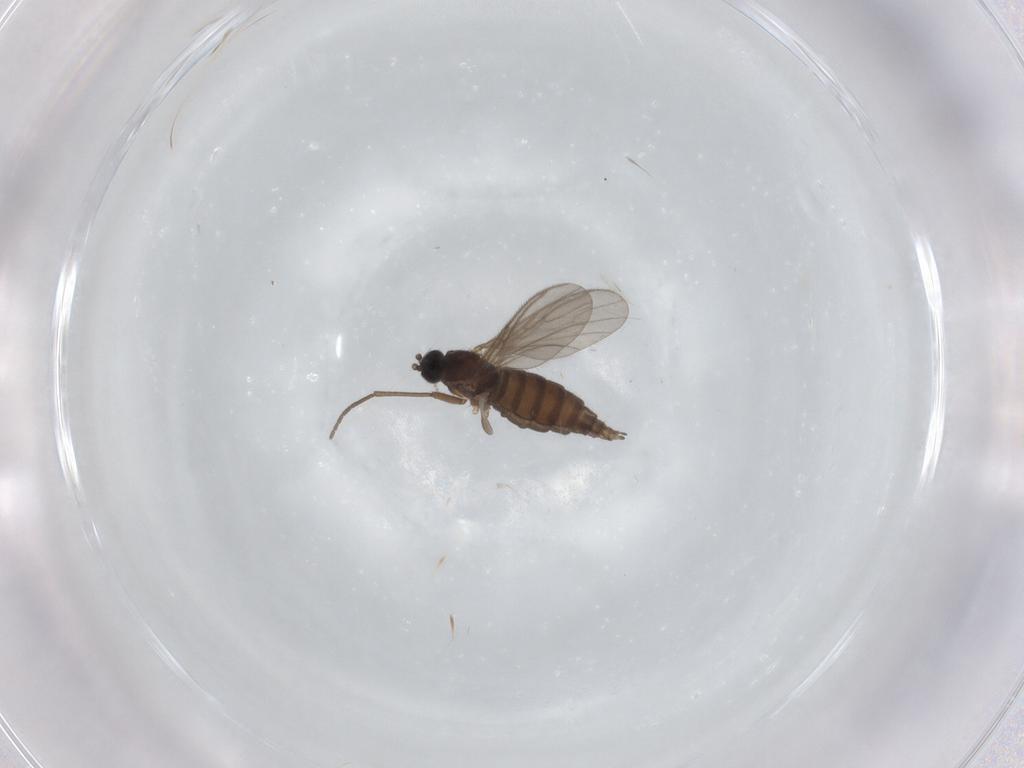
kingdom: Animalia
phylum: Arthropoda
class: Insecta
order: Diptera
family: Sciaridae
